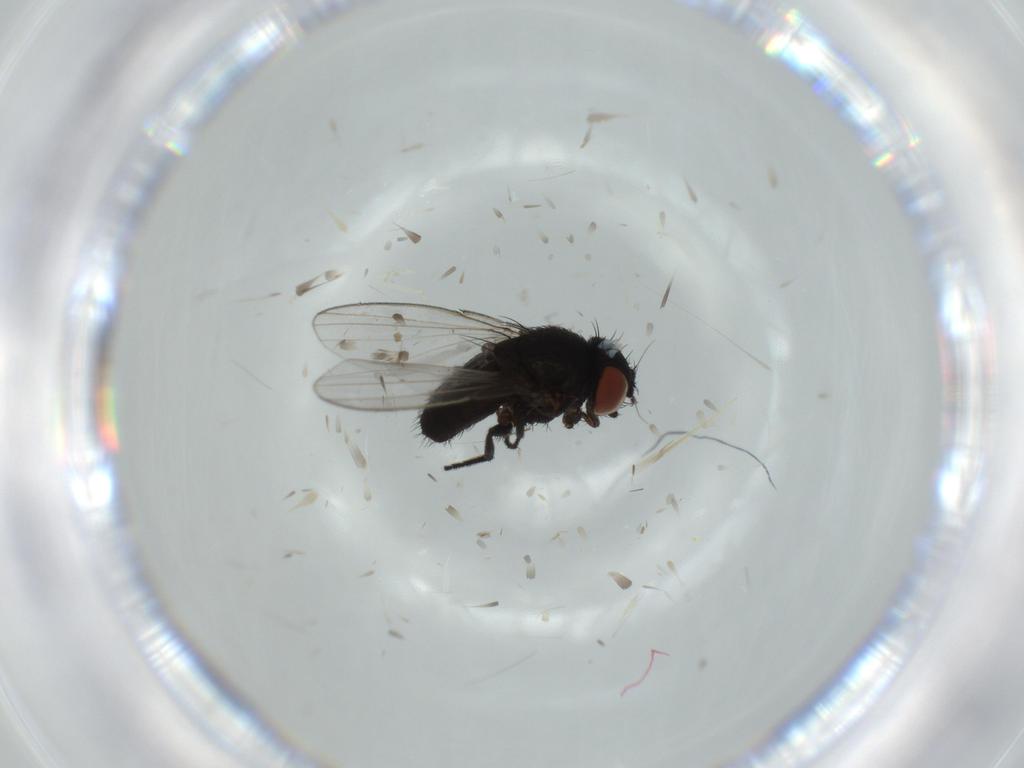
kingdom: Animalia
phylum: Arthropoda
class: Insecta
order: Diptera
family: Milichiidae
